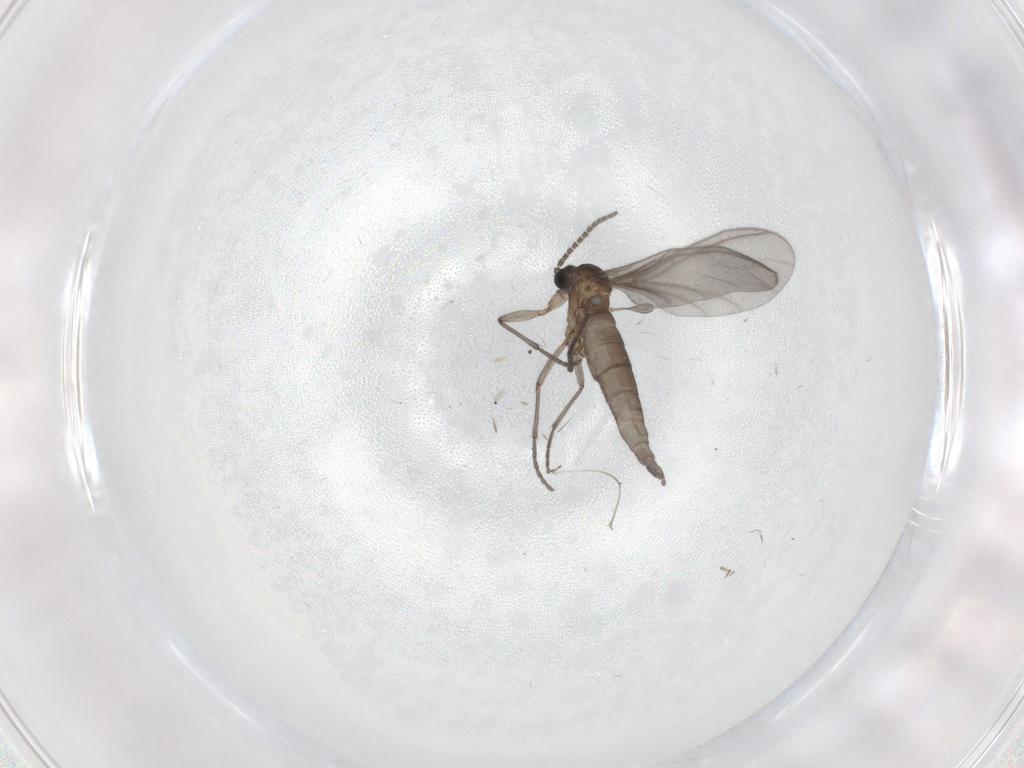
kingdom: Animalia
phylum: Arthropoda
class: Insecta
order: Diptera
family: Sciaridae
